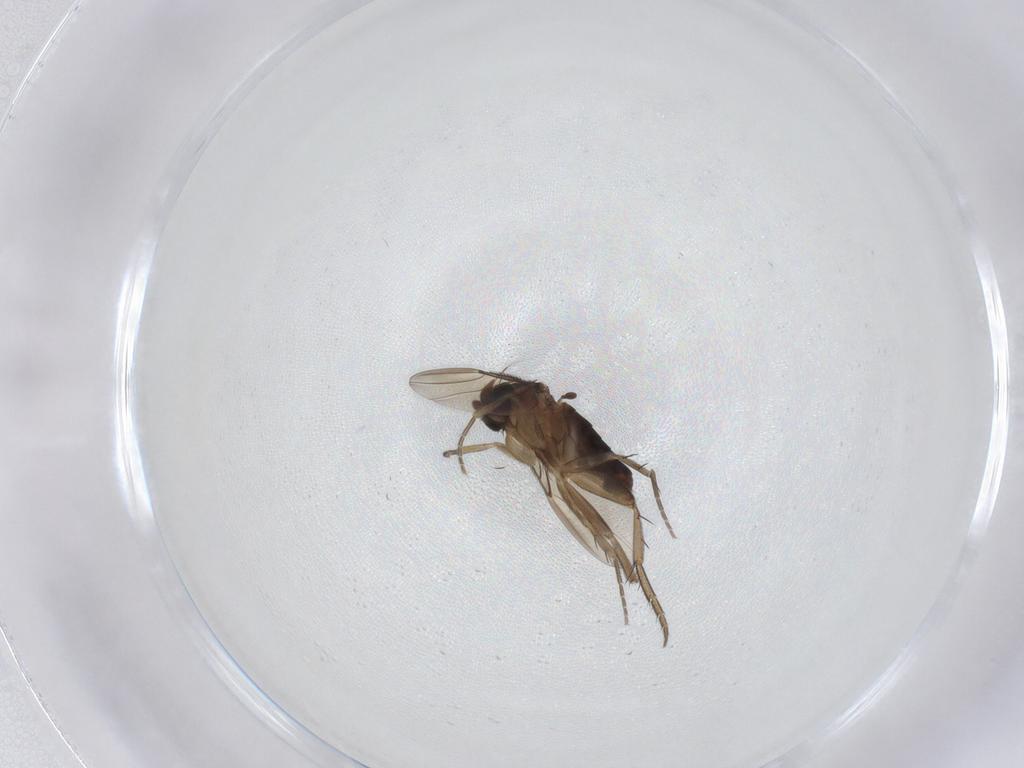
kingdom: Animalia
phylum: Arthropoda
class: Insecta
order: Diptera
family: Phoridae
